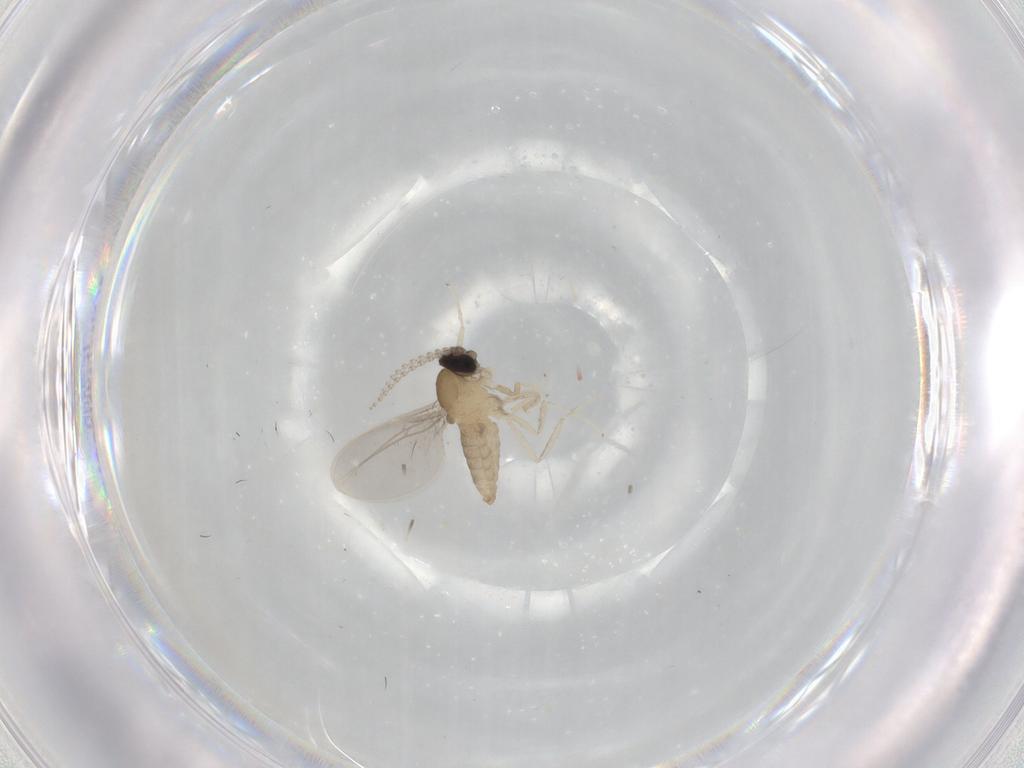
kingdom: Animalia
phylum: Arthropoda
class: Insecta
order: Diptera
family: Cecidomyiidae
